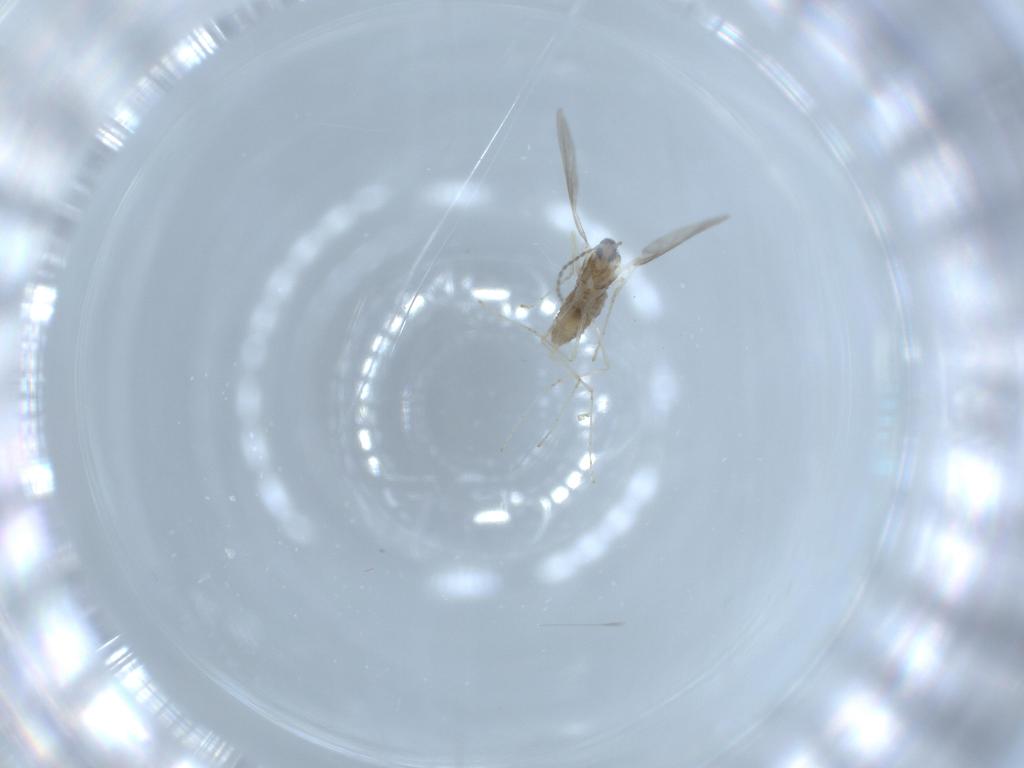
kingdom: Animalia
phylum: Arthropoda
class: Insecta
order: Diptera
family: Cecidomyiidae
